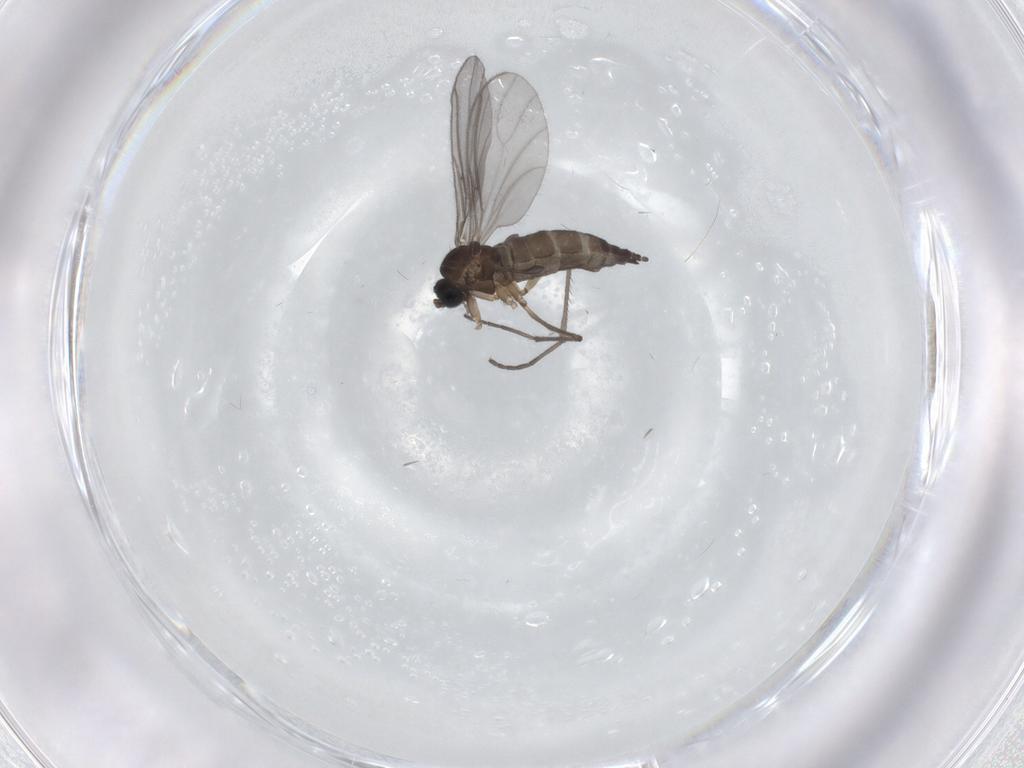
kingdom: Animalia
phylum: Arthropoda
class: Insecta
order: Diptera
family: Sciaridae
